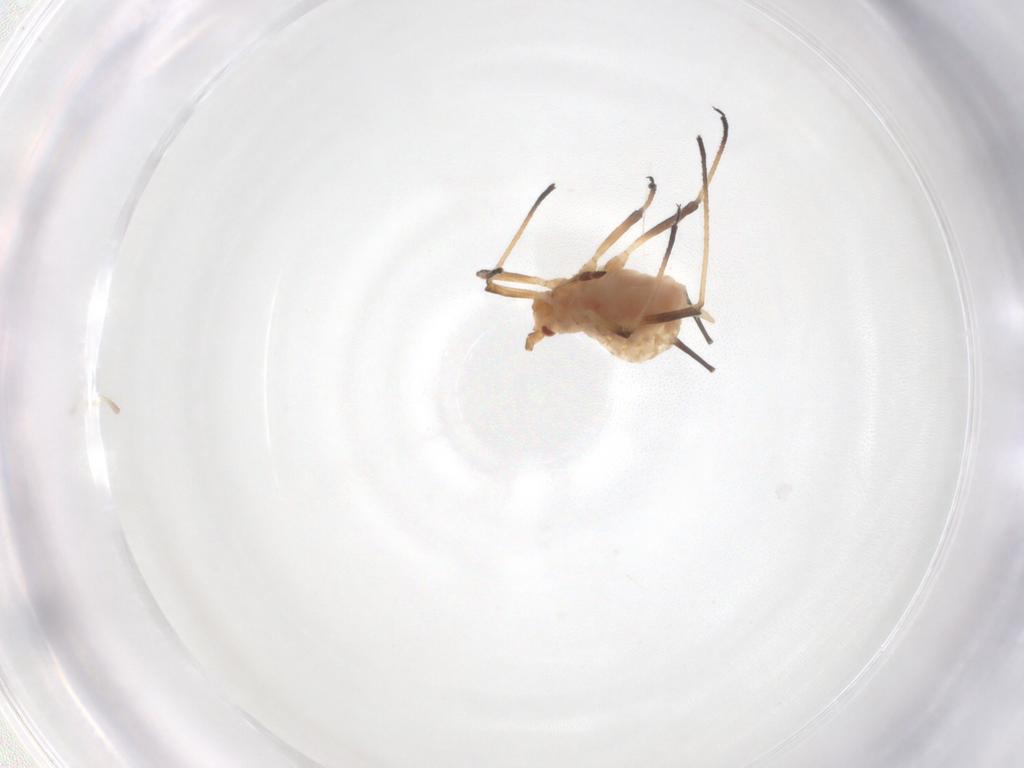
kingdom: Animalia
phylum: Arthropoda
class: Insecta
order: Hemiptera
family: Aphididae
